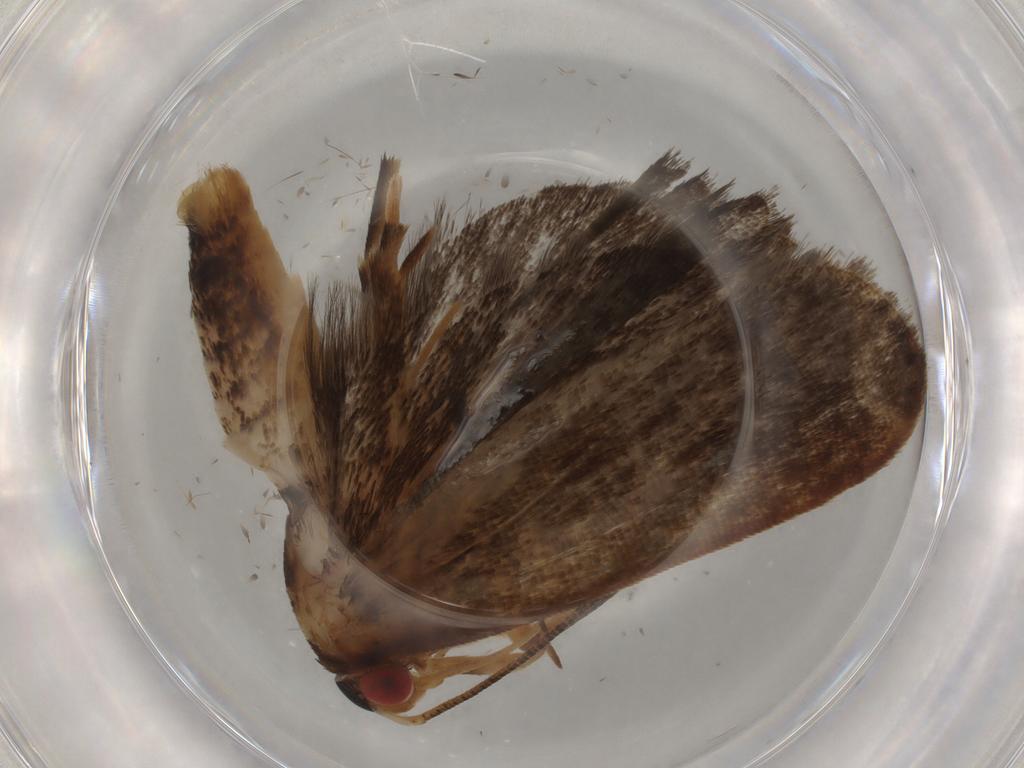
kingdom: Animalia
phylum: Arthropoda
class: Insecta
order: Lepidoptera
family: Gelechiidae
